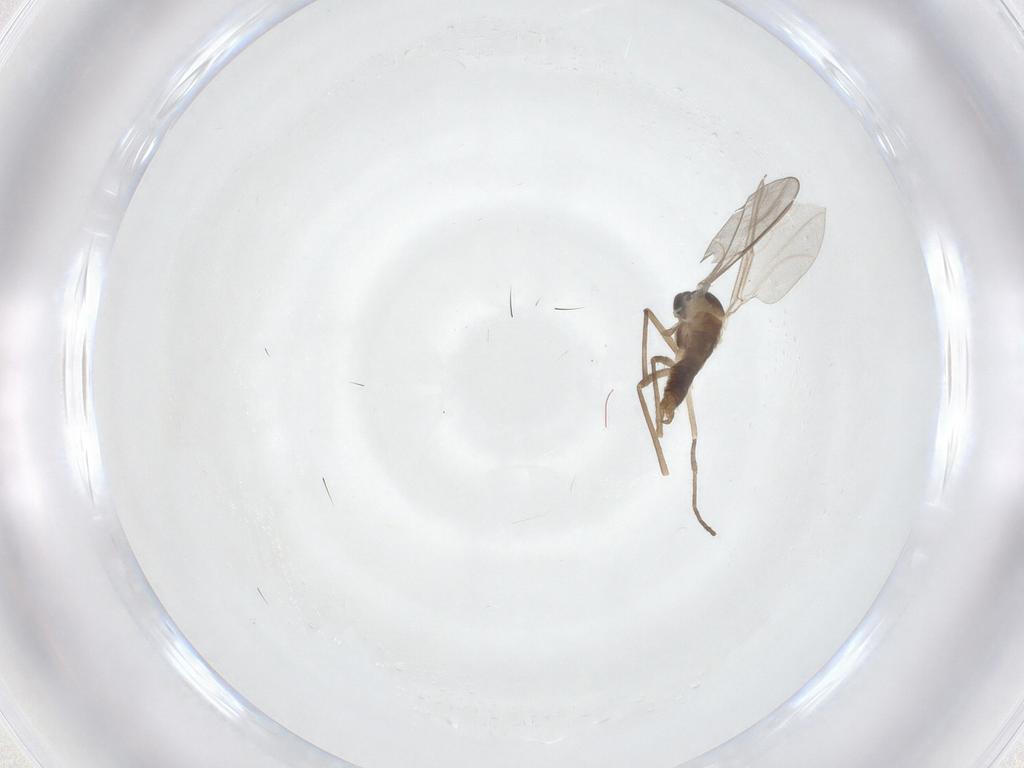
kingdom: Animalia
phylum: Arthropoda
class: Insecta
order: Diptera
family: Cecidomyiidae
